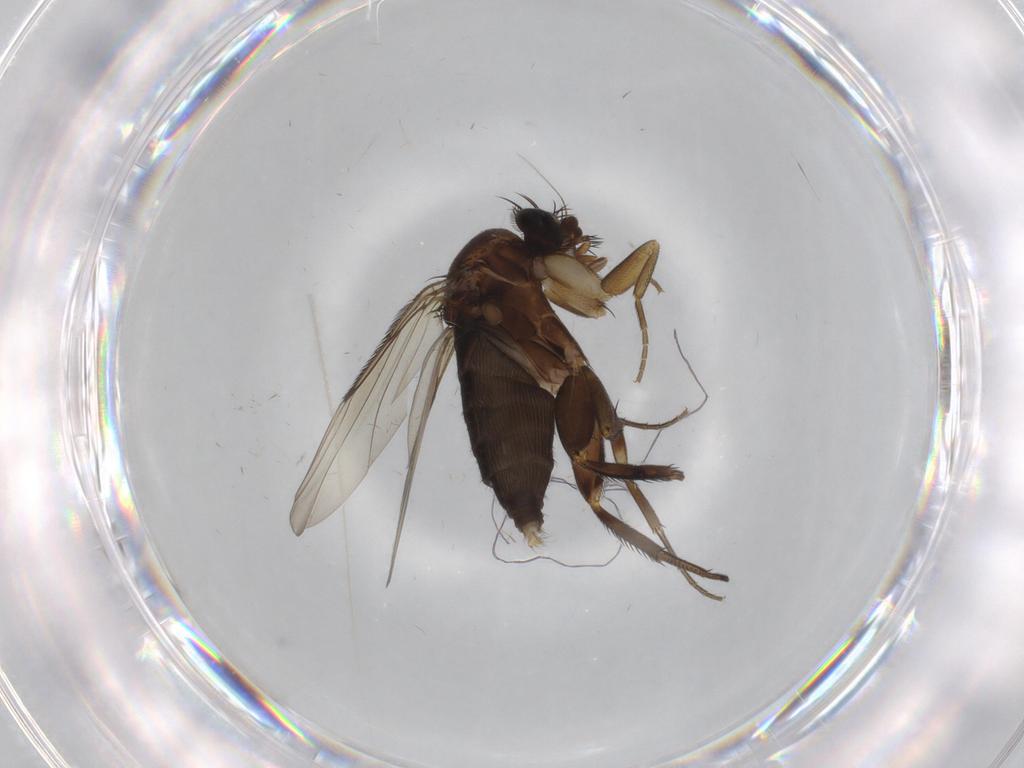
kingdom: Animalia
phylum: Arthropoda
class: Insecta
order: Diptera
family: Phoridae
